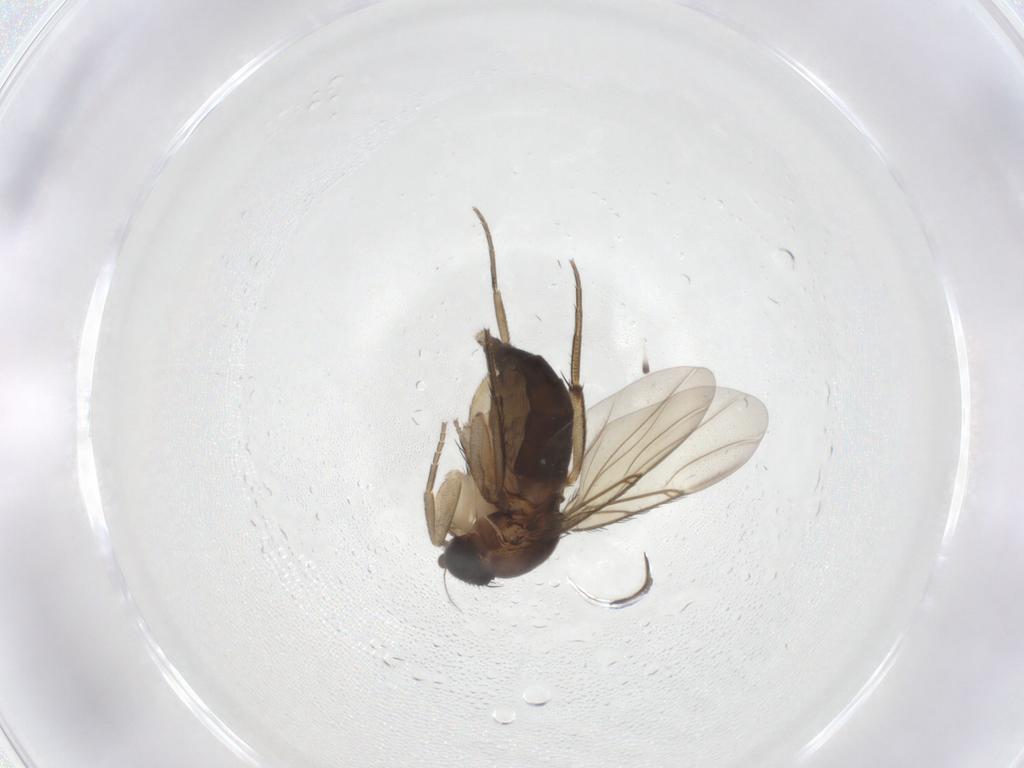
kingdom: Animalia
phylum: Arthropoda
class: Insecta
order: Diptera
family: Phoridae
